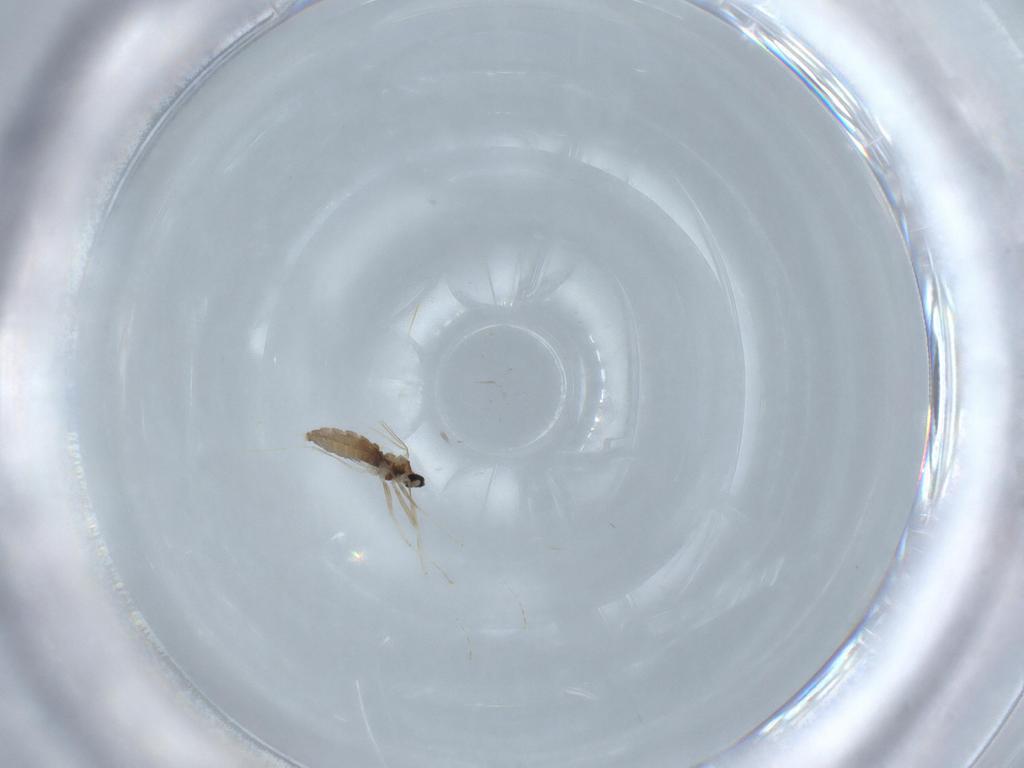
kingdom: Animalia
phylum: Arthropoda
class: Insecta
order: Diptera
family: Cecidomyiidae
